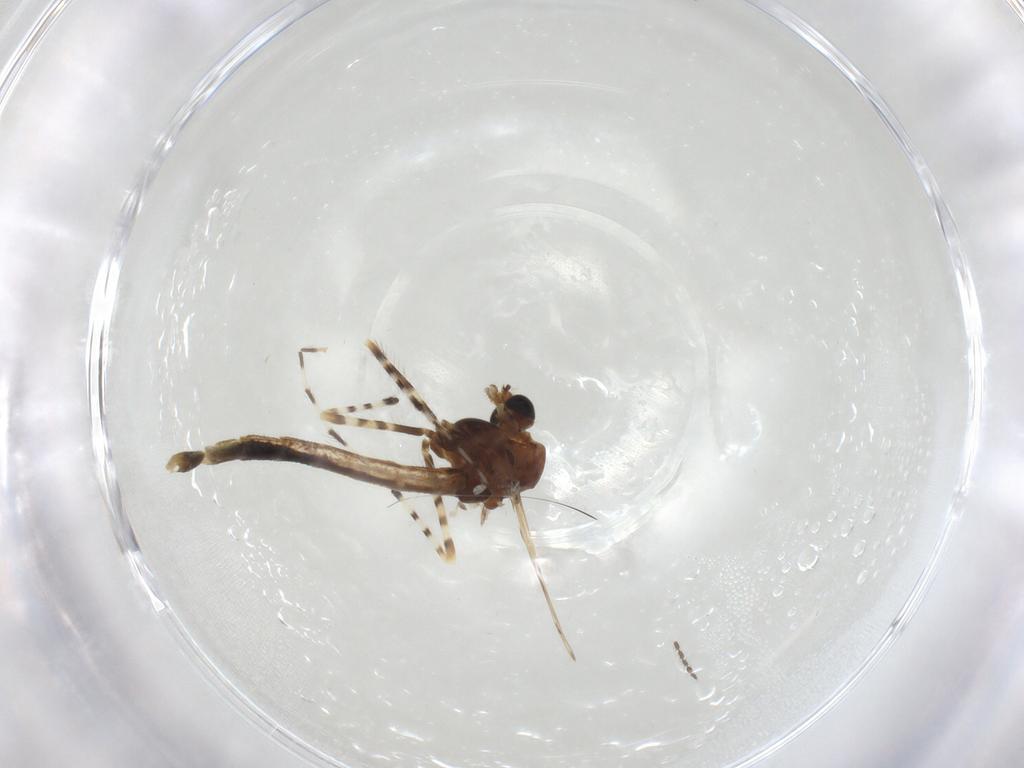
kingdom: Animalia
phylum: Arthropoda
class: Insecta
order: Diptera
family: Chironomidae
